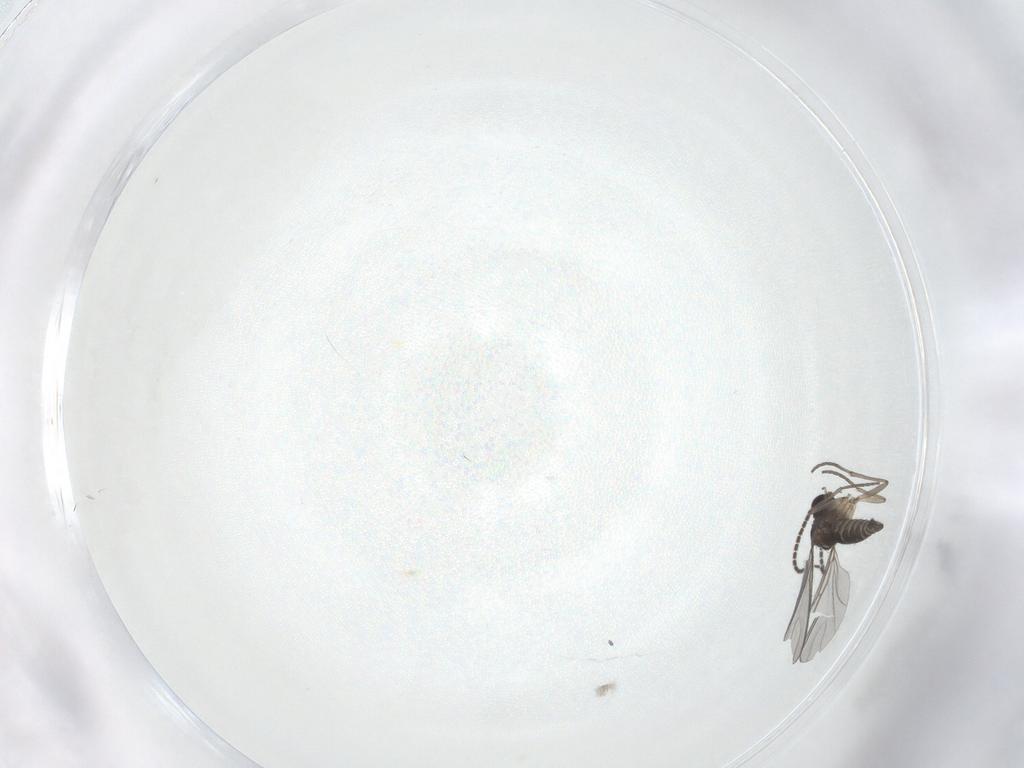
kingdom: Animalia
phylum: Arthropoda
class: Insecta
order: Diptera
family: Sciaridae
